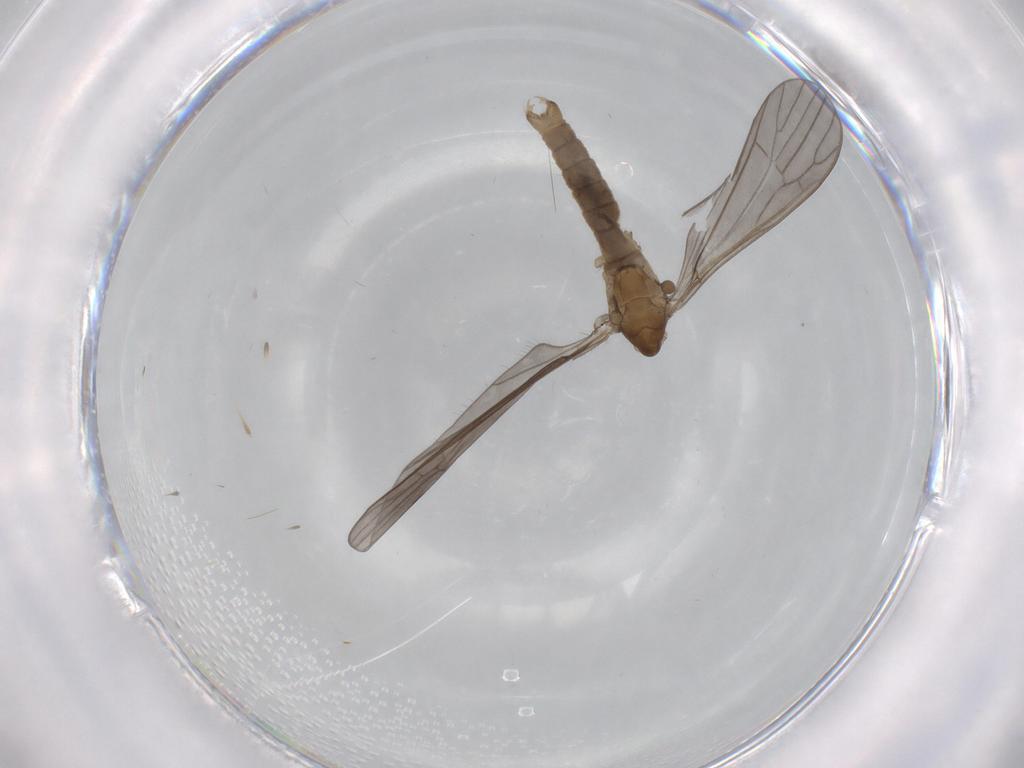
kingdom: Animalia
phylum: Arthropoda
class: Insecta
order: Diptera
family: Limoniidae
